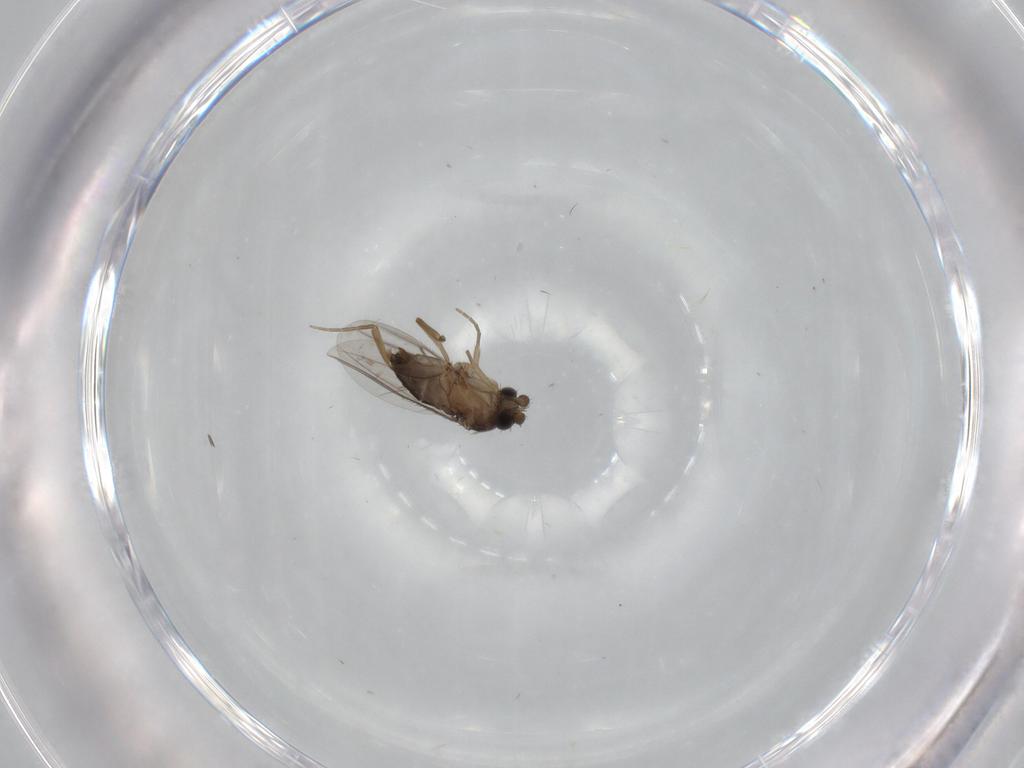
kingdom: Animalia
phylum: Arthropoda
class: Insecta
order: Diptera
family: Phoridae
